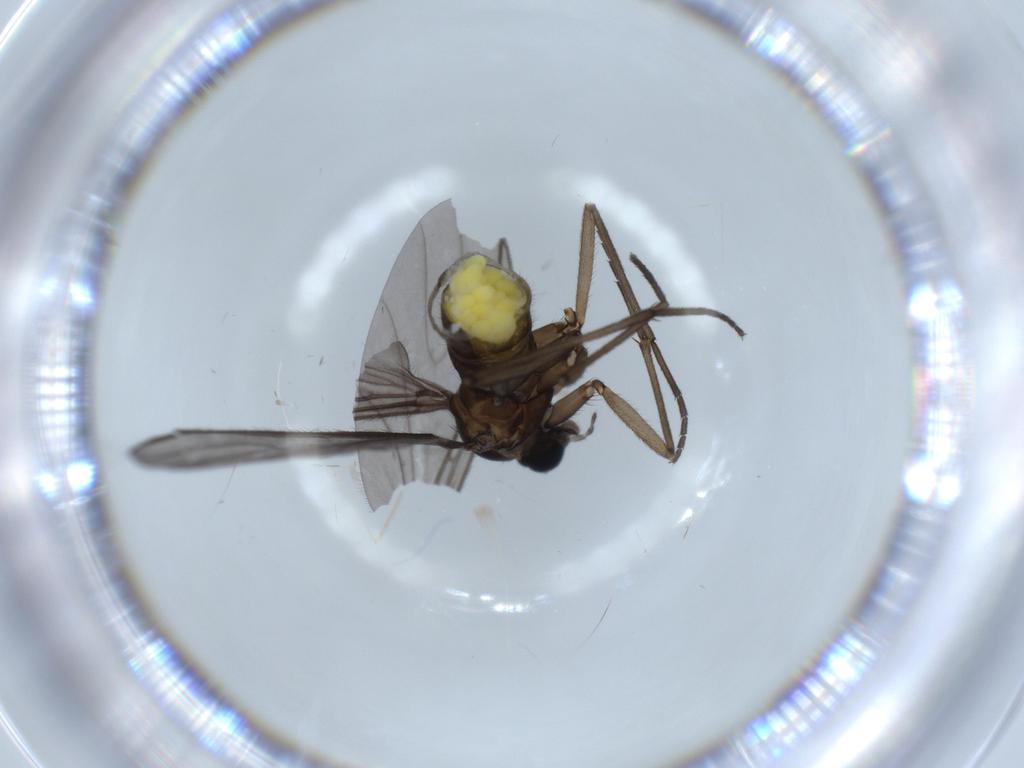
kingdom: Animalia
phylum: Arthropoda
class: Insecta
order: Diptera
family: Sciaridae
